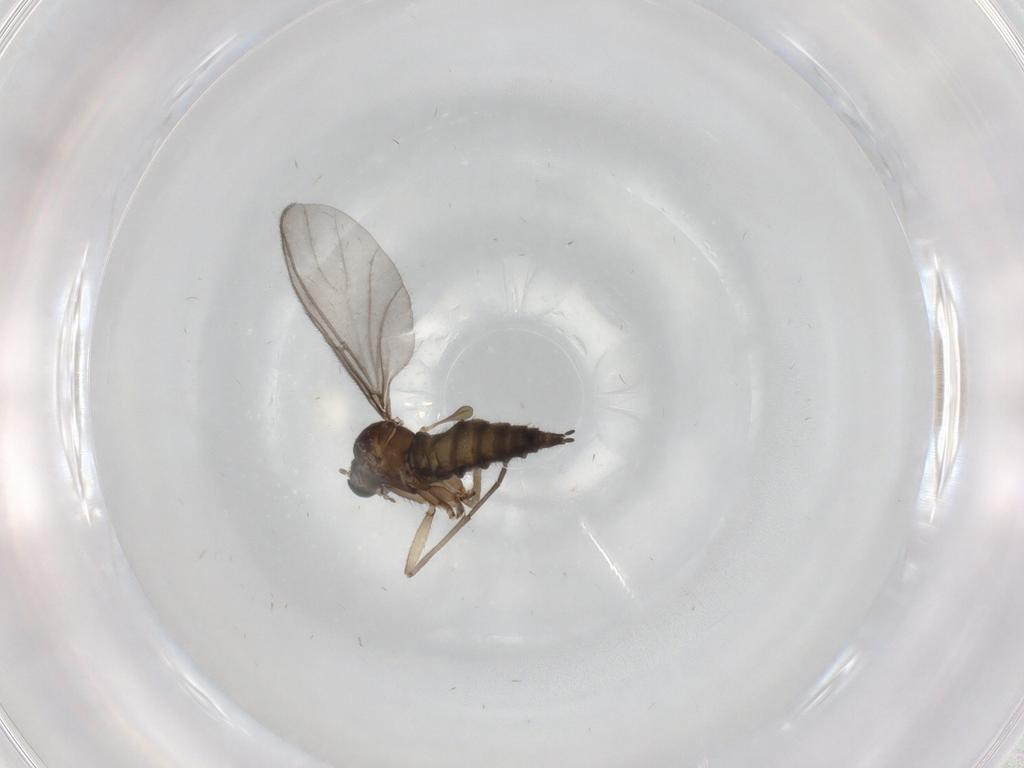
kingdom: Animalia
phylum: Arthropoda
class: Insecta
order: Diptera
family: Sciaridae
